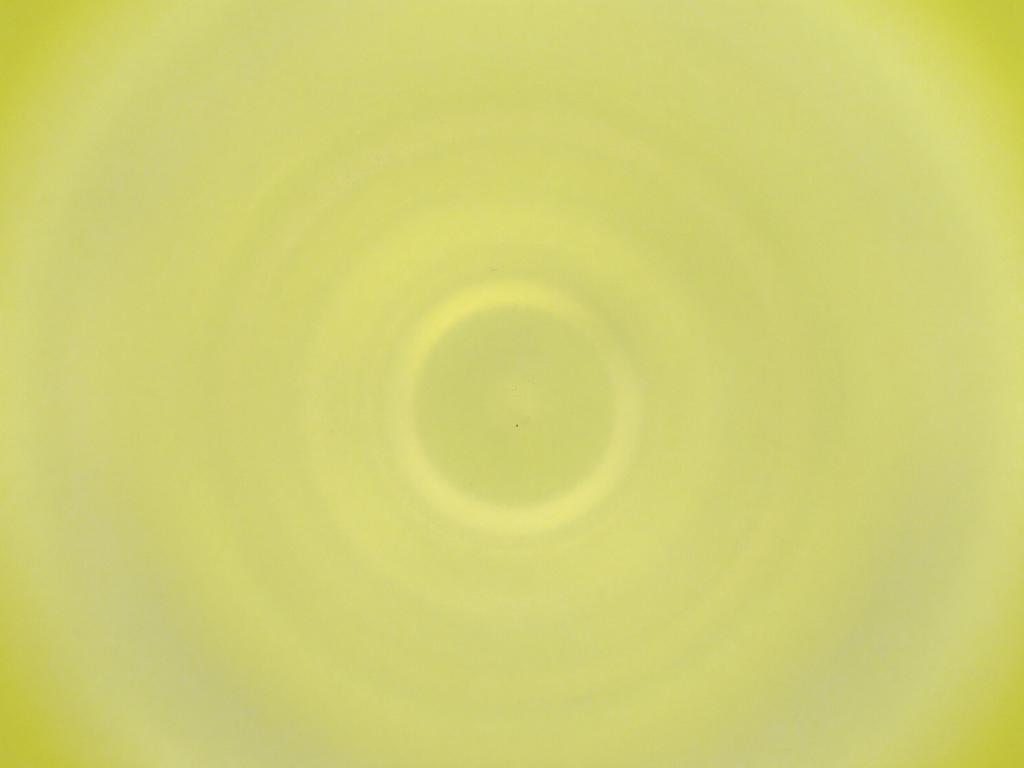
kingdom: Animalia
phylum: Arthropoda
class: Insecta
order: Diptera
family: Cecidomyiidae
